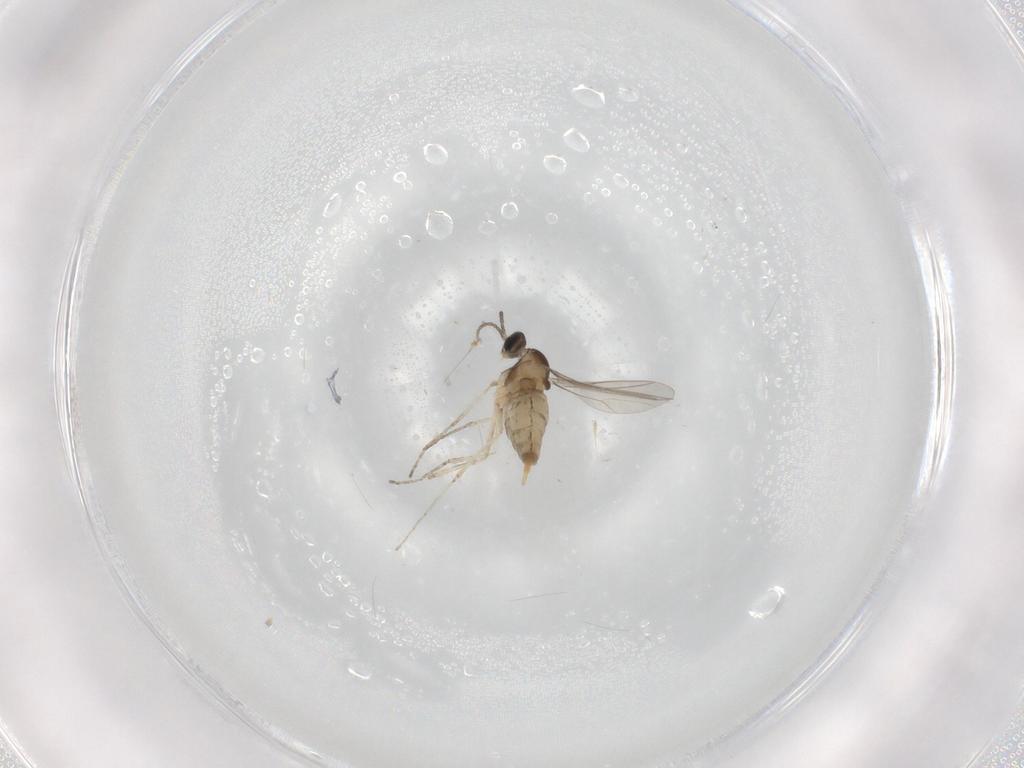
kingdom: Animalia
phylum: Arthropoda
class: Insecta
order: Diptera
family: Cecidomyiidae
